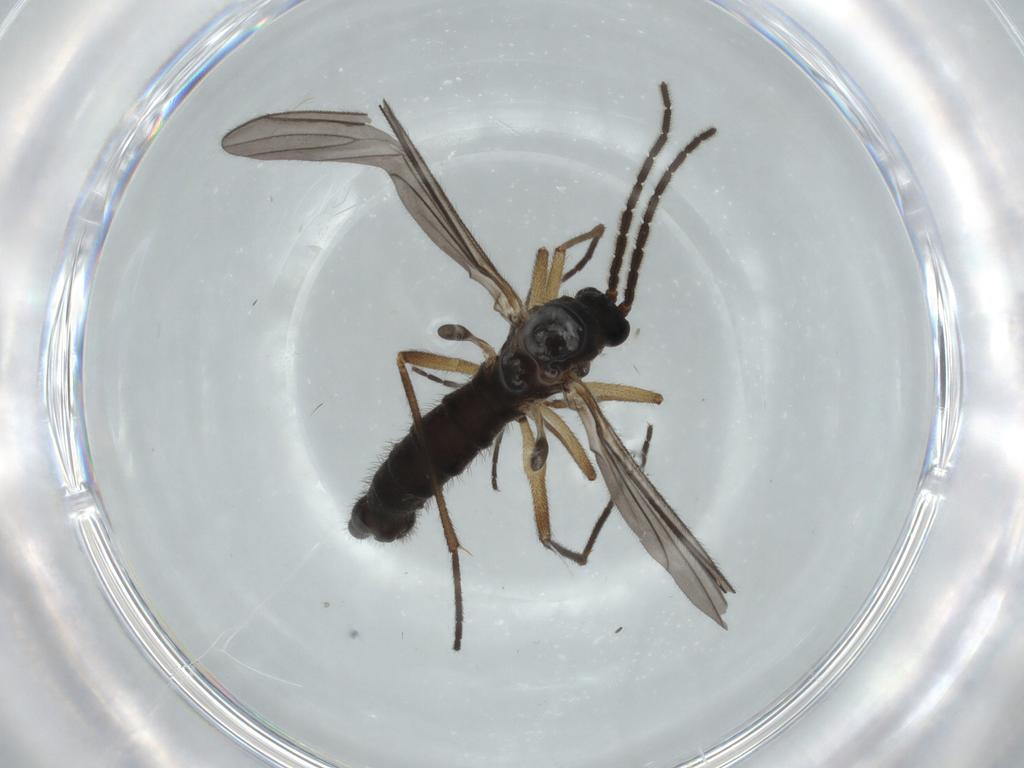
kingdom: Animalia
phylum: Arthropoda
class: Insecta
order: Diptera
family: Sciaridae
